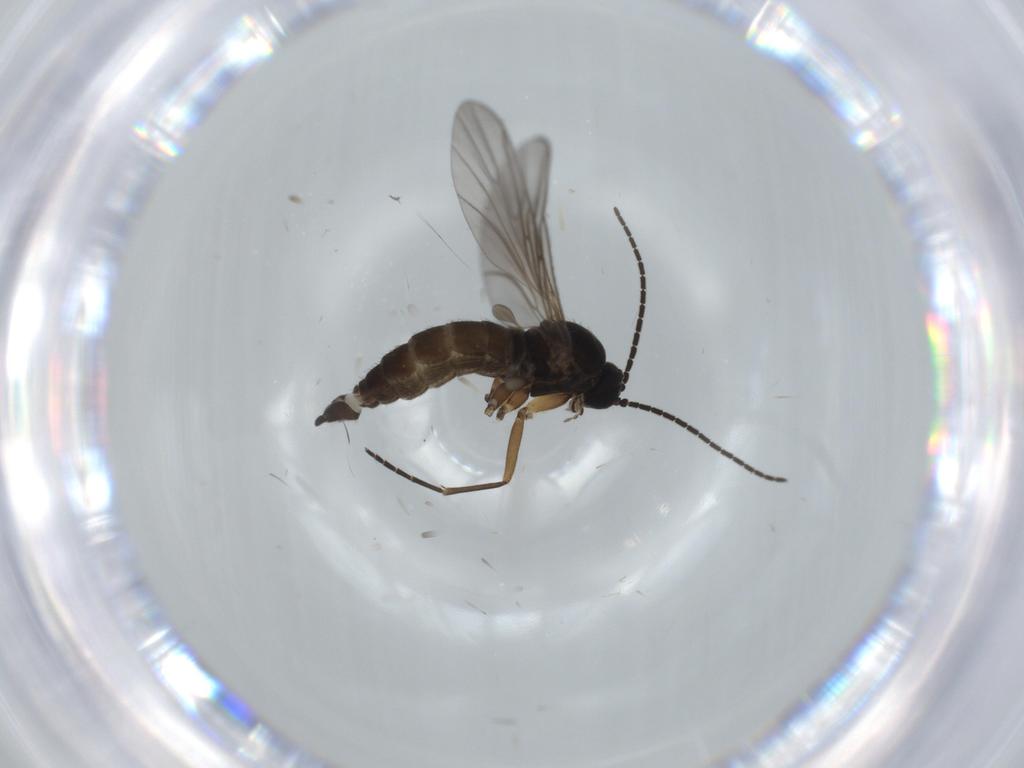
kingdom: Animalia
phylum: Arthropoda
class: Insecta
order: Diptera
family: Sciaridae
